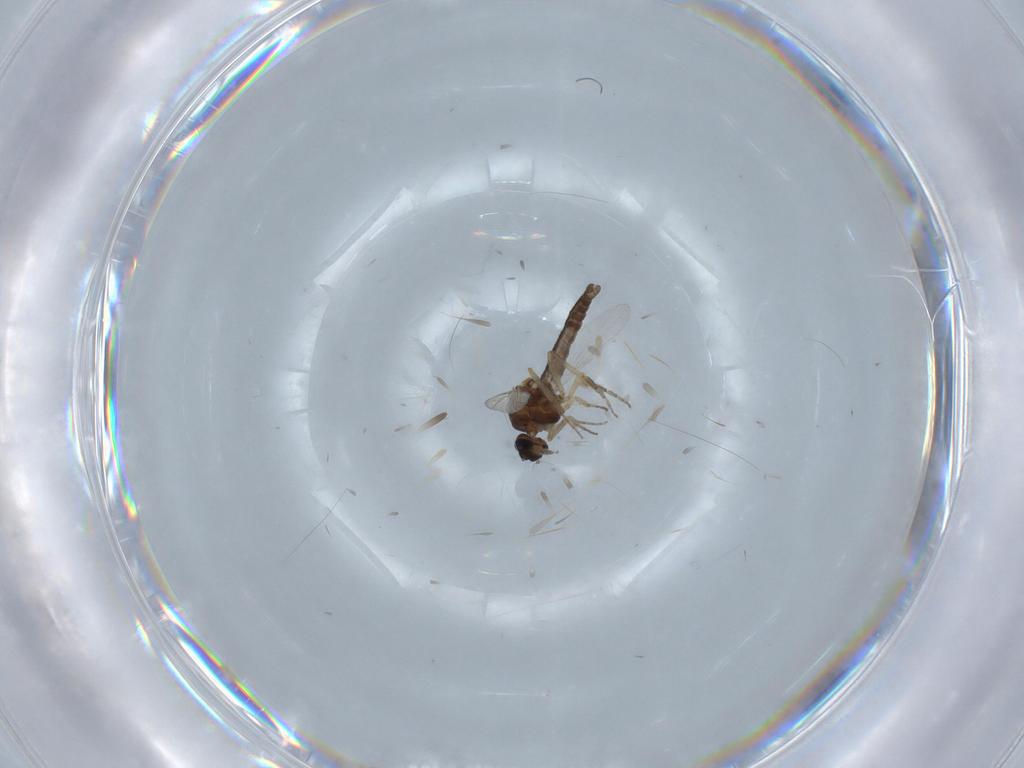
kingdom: Animalia
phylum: Arthropoda
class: Insecta
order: Diptera
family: Ceratopogonidae
